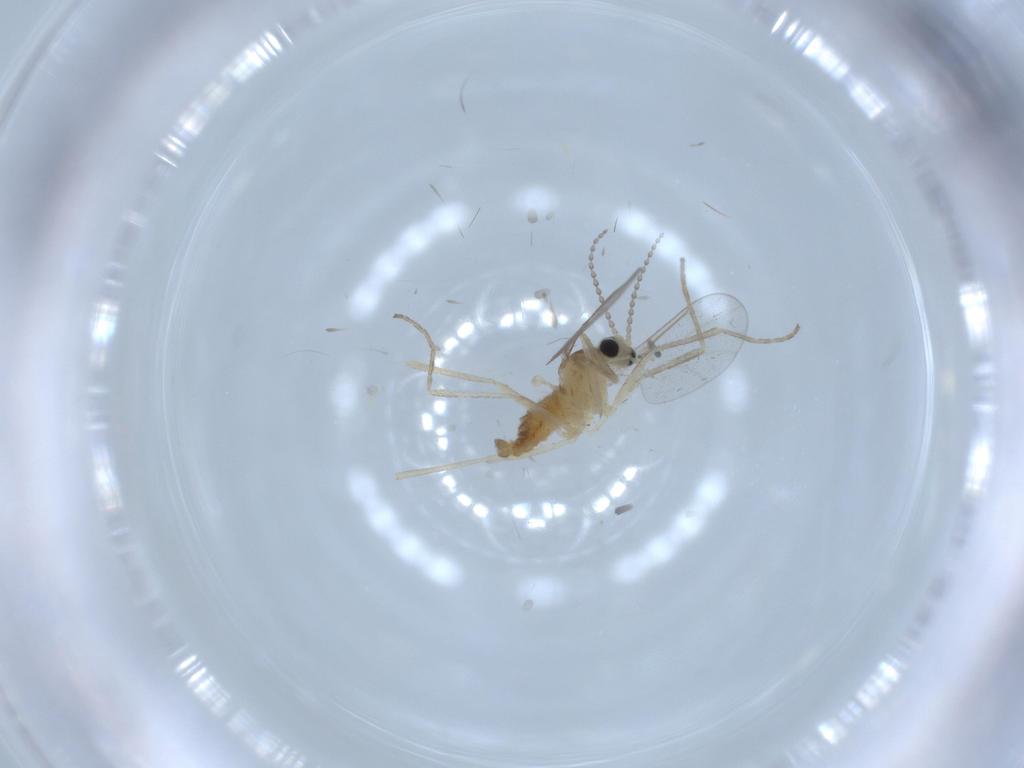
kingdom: Animalia
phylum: Arthropoda
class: Insecta
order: Diptera
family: Cecidomyiidae
